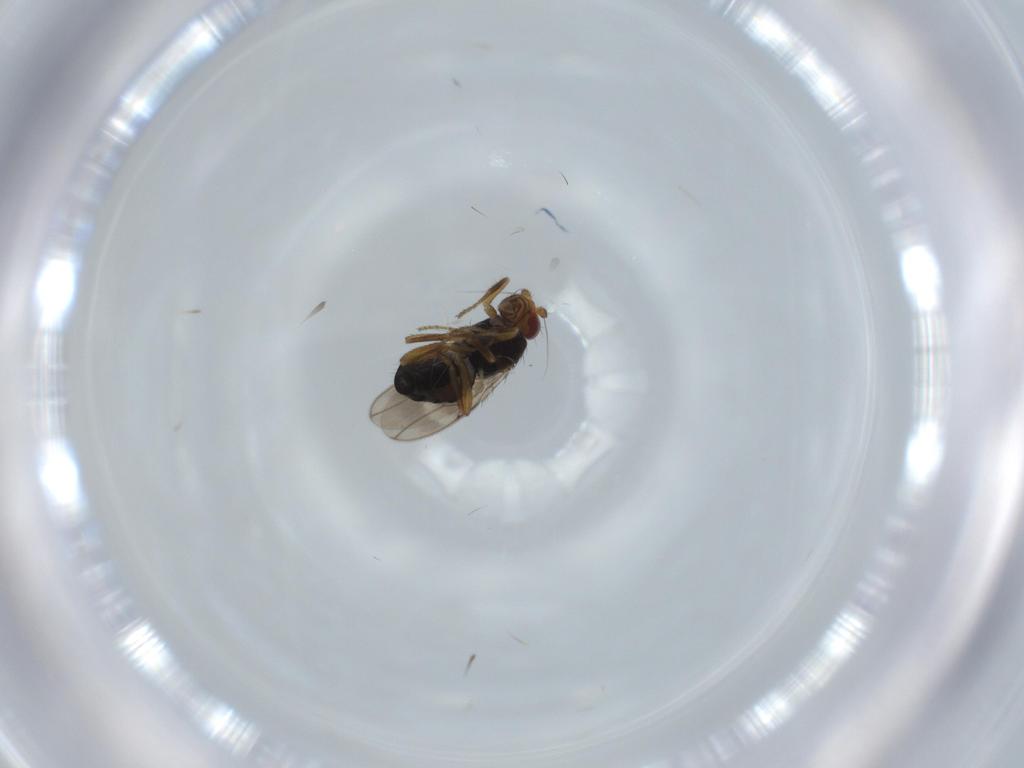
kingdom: Animalia
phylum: Arthropoda
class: Insecta
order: Diptera
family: Sphaeroceridae
